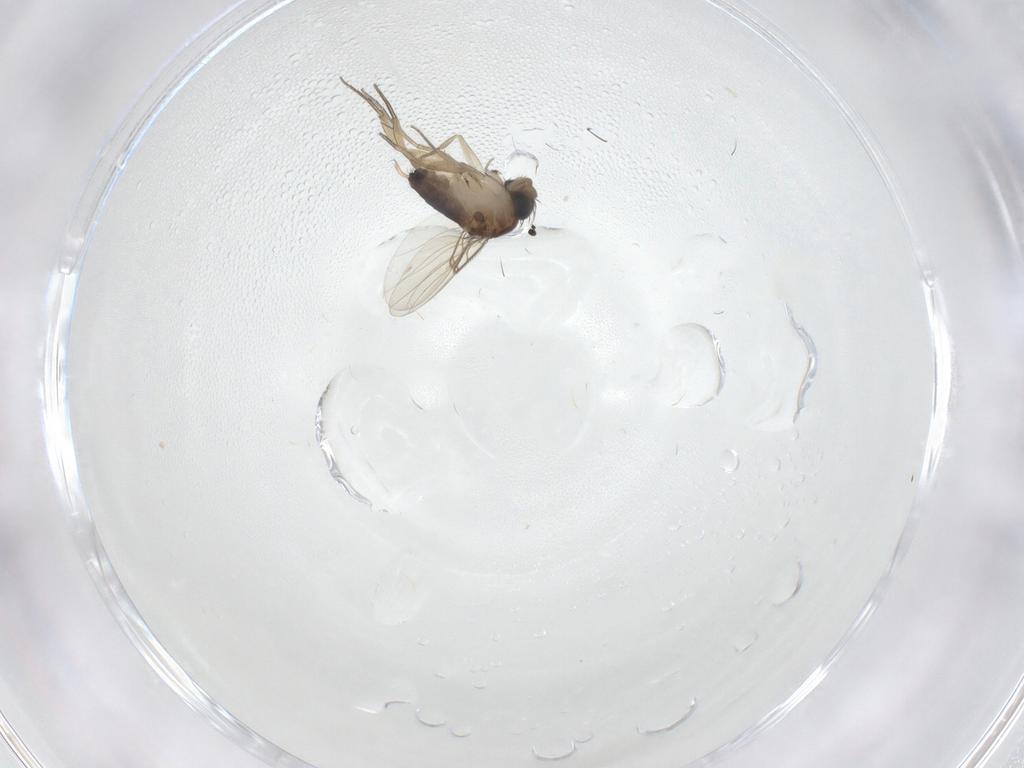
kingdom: Animalia
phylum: Arthropoda
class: Insecta
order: Diptera
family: Phoridae
